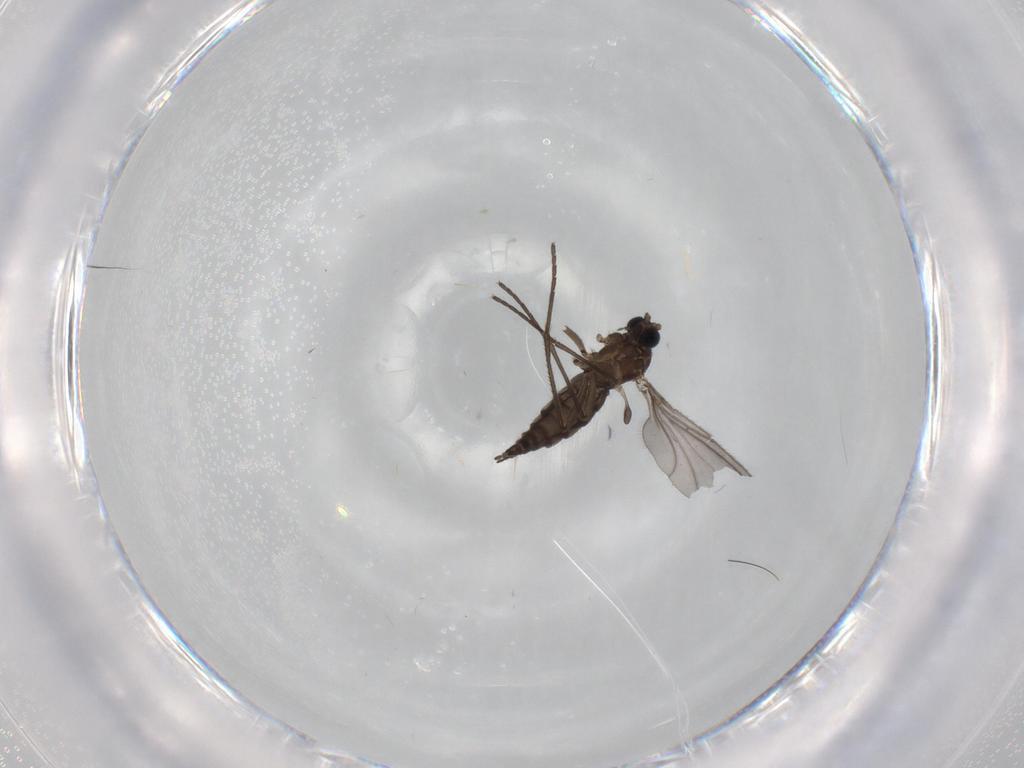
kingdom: Animalia
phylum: Arthropoda
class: Insecta
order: Diptera
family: Sciaridae
